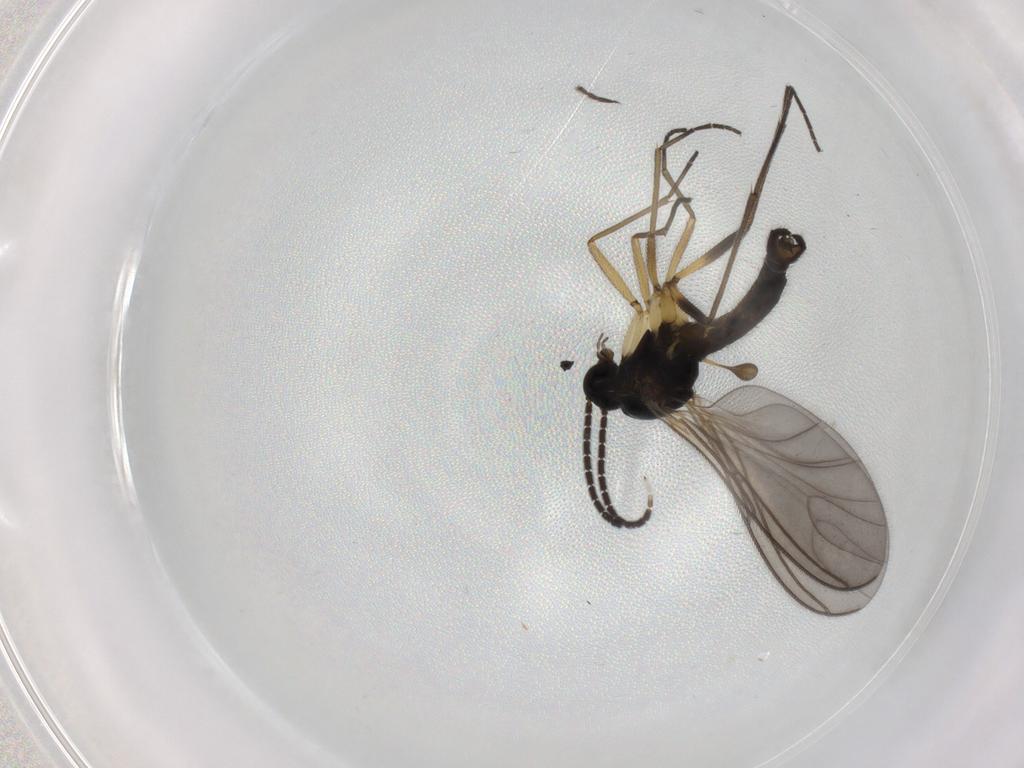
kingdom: Animalia
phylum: Arthropoda
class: Insecta
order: Diptera
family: Sciaridae
